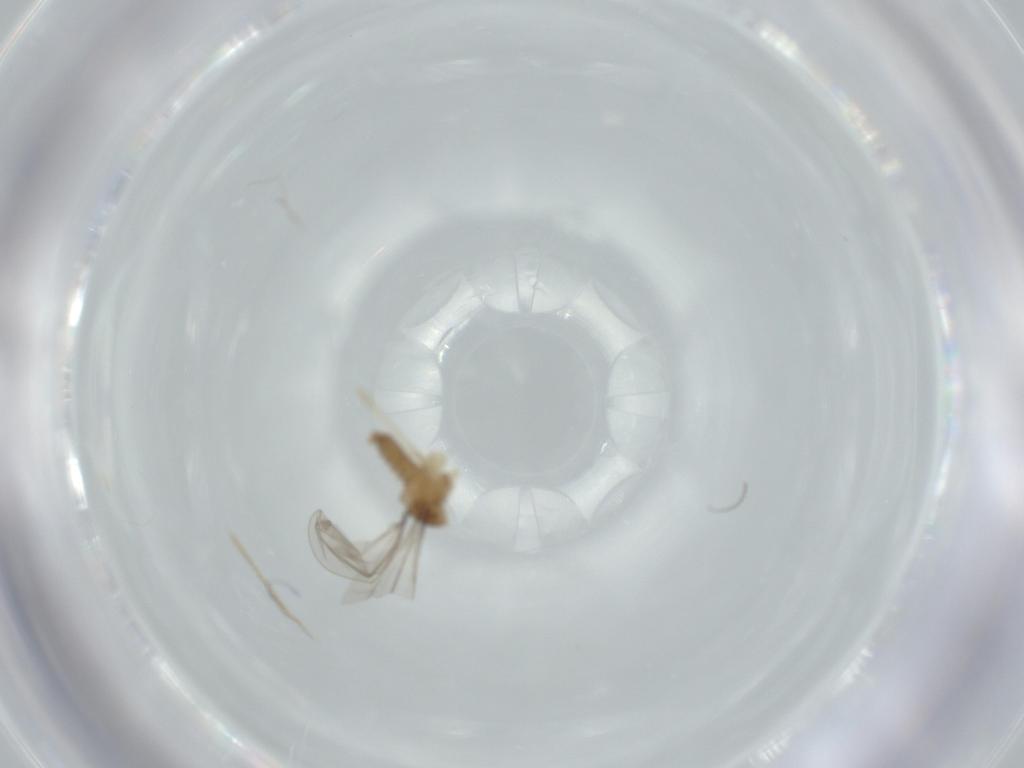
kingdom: Animalia
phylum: Arthropoda
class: Insecta
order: Diptera
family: Cecidomyiidae
